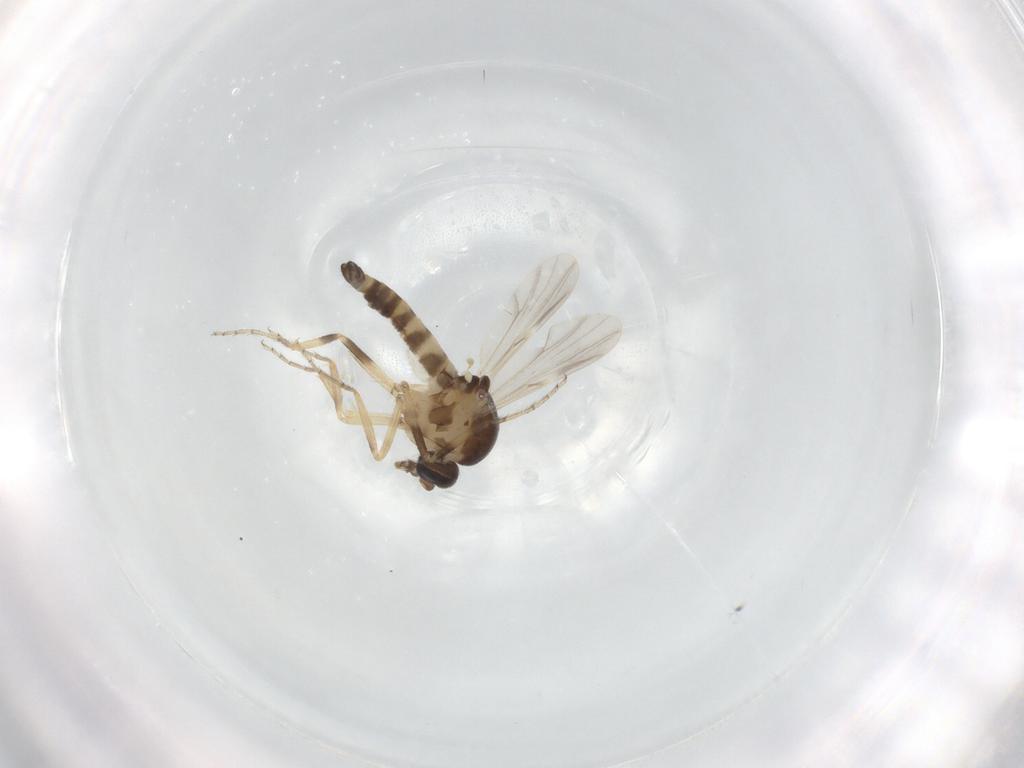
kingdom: Animalia
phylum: Arthropoda
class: Insecta
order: Diptera
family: Ceratopogonidae
